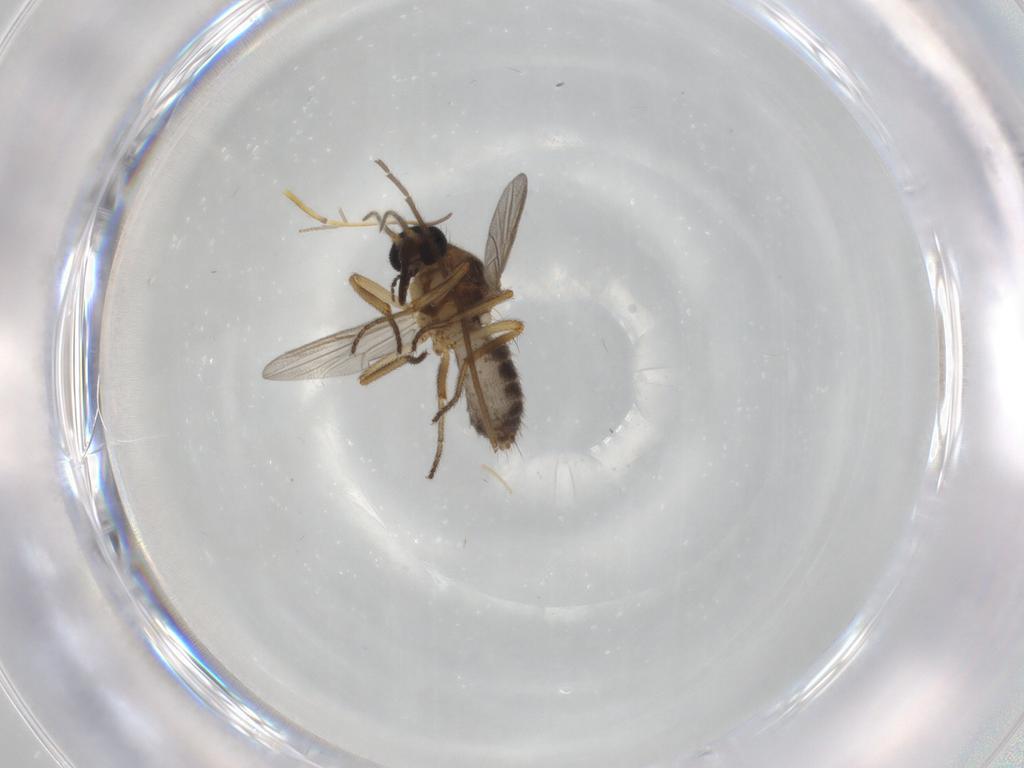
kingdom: Animalia
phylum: Arthropoda
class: Insecta
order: Diptera
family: Ceratopogonidae
